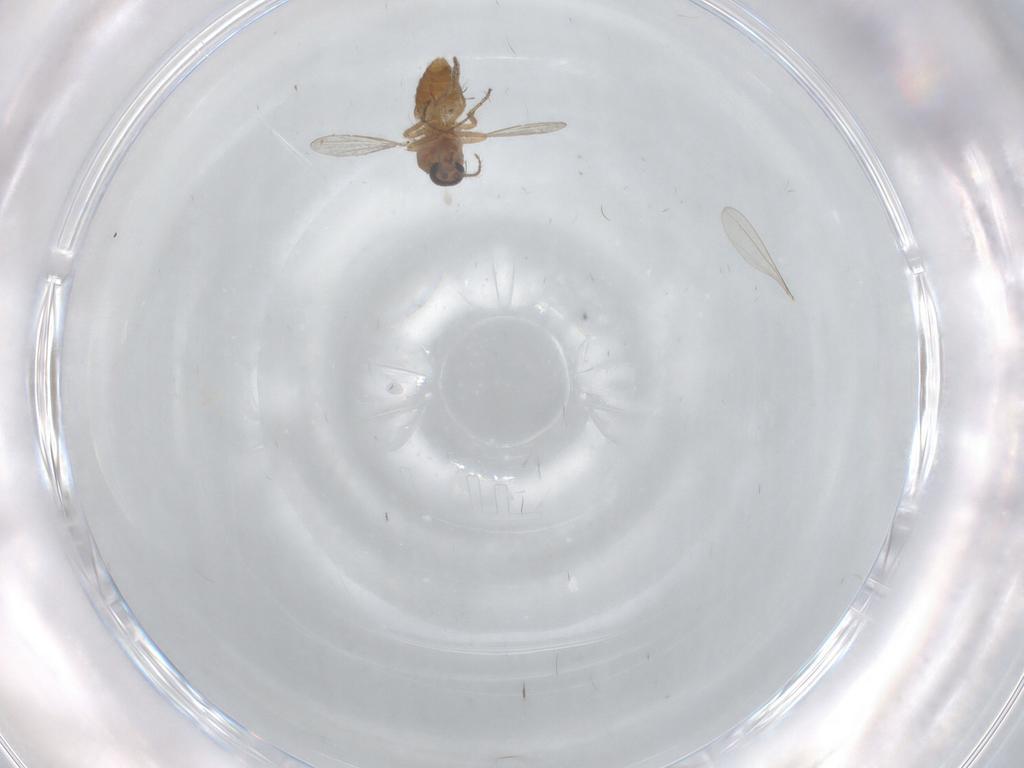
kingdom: Animalia
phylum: Arthropoda
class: Insecta
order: Diptera
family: Ceratopogonidae
